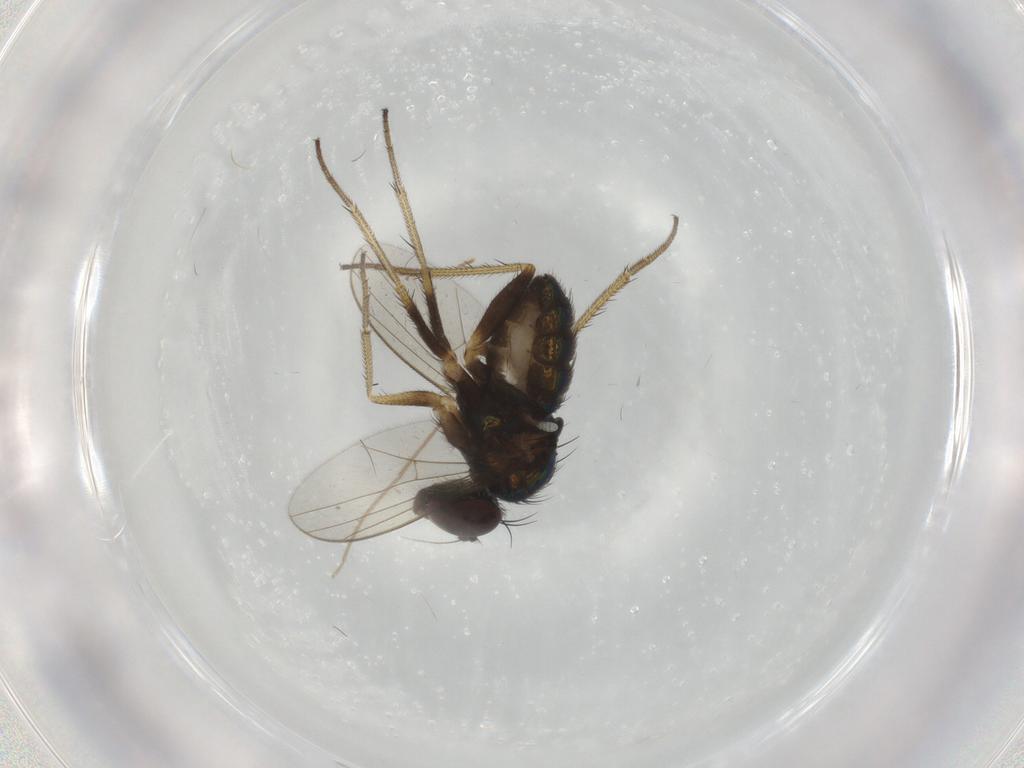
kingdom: Animalia
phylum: Arthropoda
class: Insecta
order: Diptera
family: Dolichopodidae
